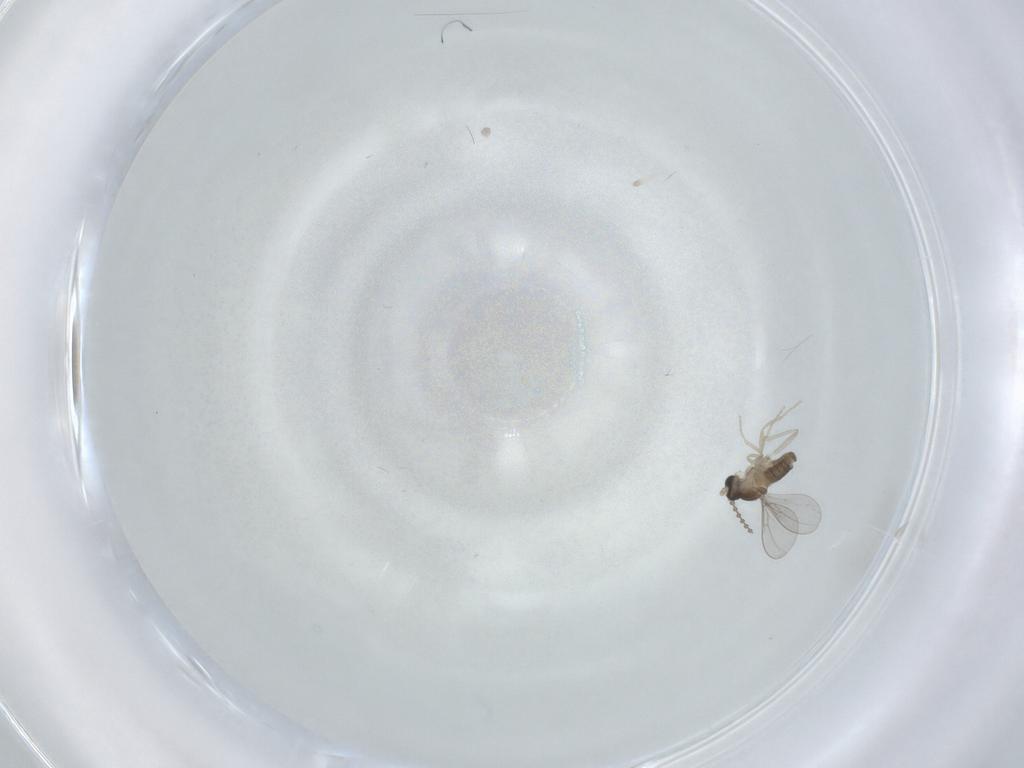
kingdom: Animalia
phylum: Arthropoda
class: Insecta
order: Diptera
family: Cecidomyiidae
